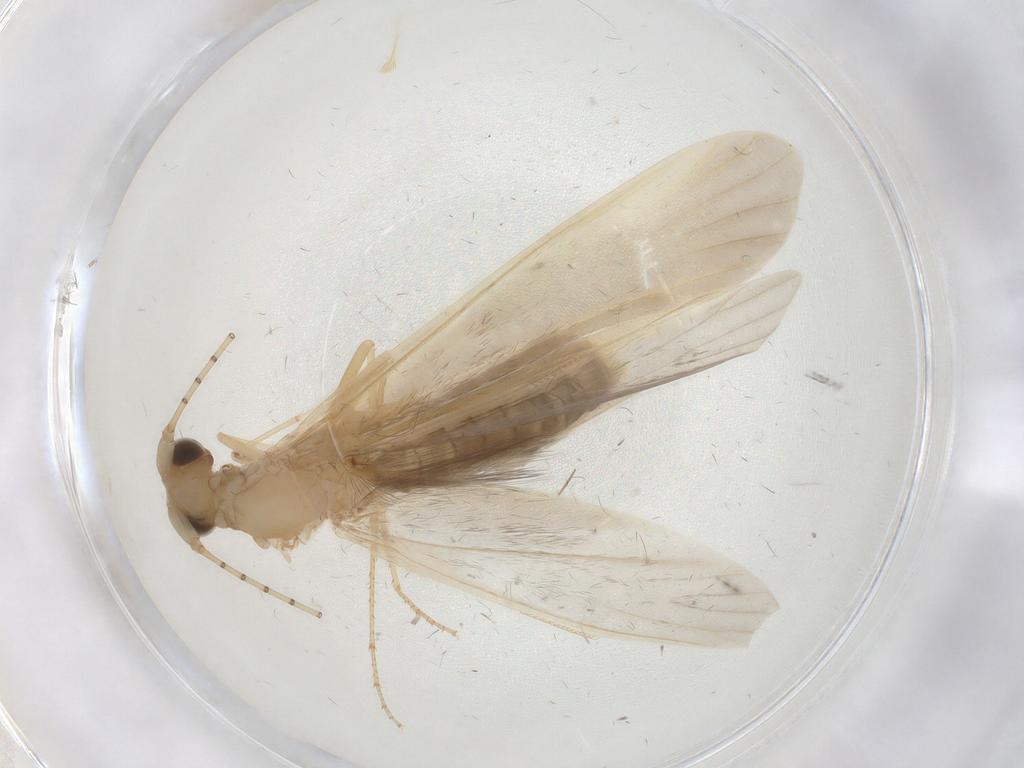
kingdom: Animalia
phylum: Arthropoda
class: Insecta
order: Trichoptera
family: Leptoceridae
